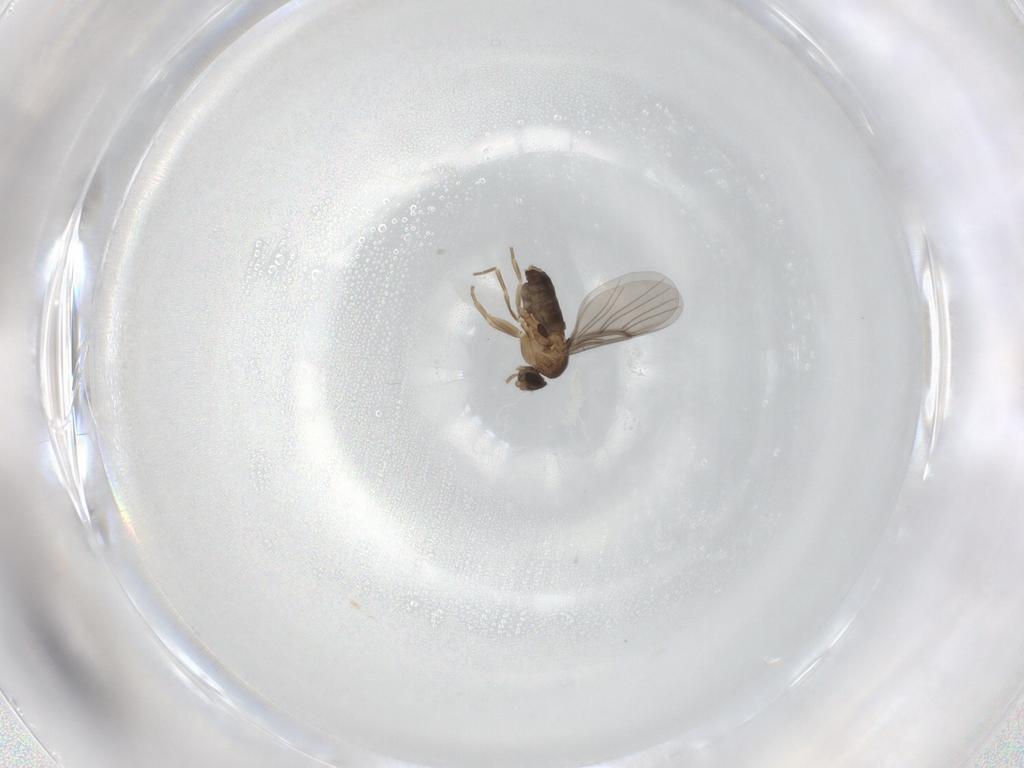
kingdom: Animalia
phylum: Arthropoda
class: Insecta
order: Diptera
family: Phoridae
